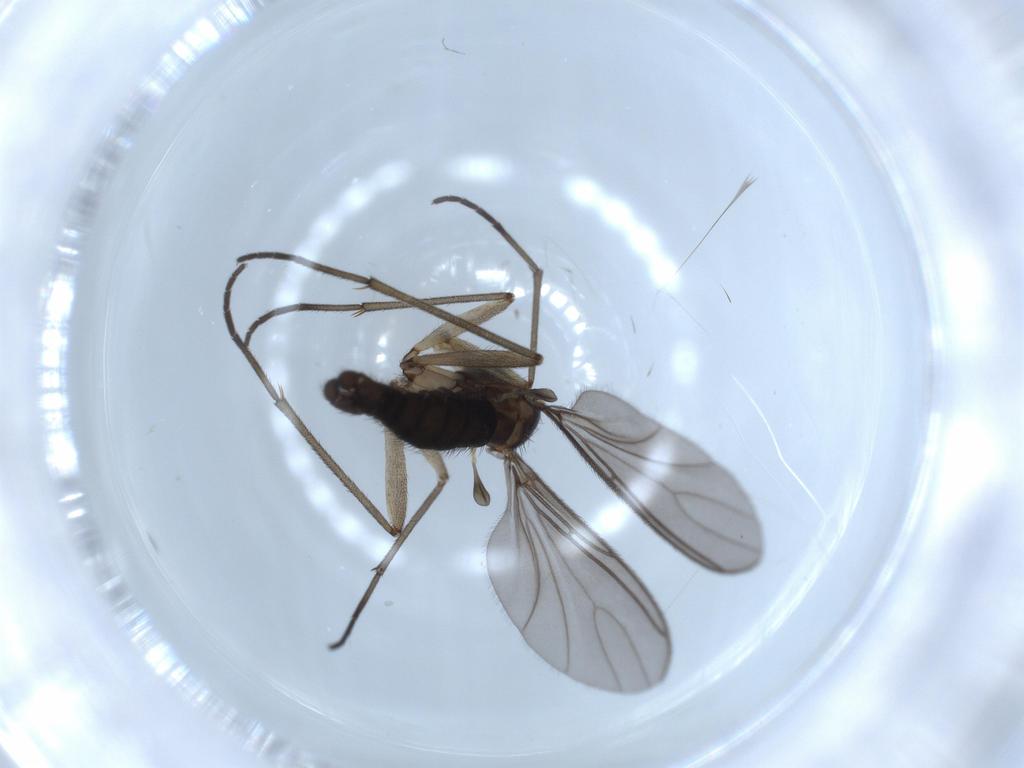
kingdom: Animalia
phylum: Arthropoda
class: Insecta
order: Diptera
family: Sciaridae
